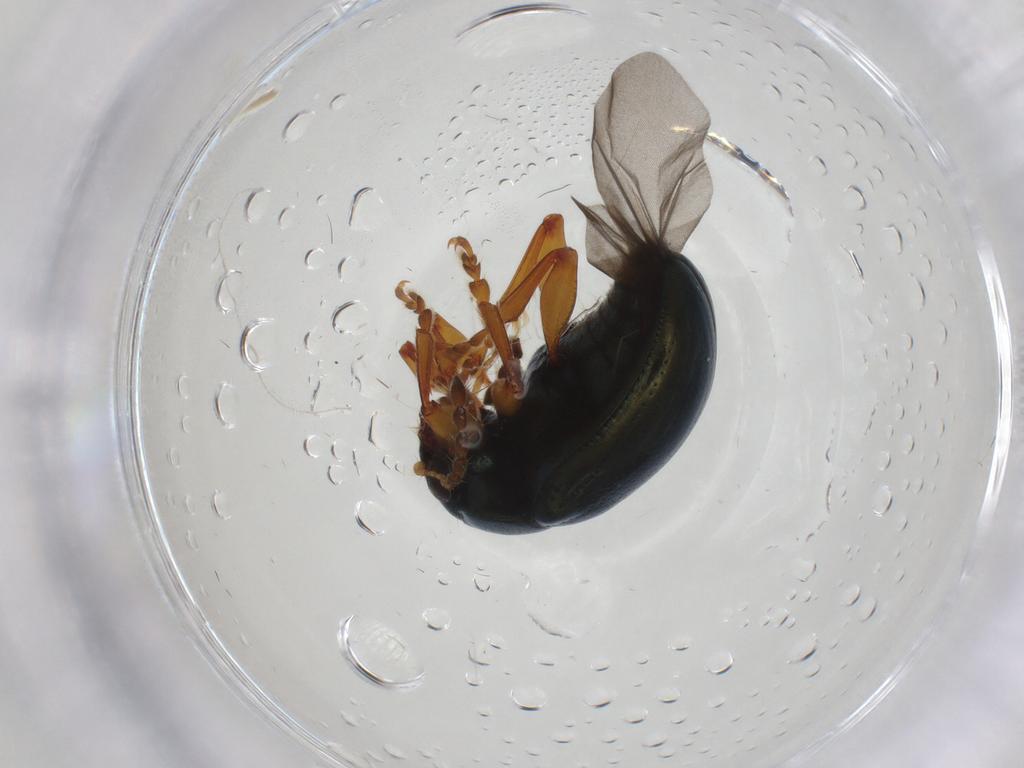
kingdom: Animalia
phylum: Arthropoda
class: Insecta
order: Coleoptera
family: Chrysomelidae
